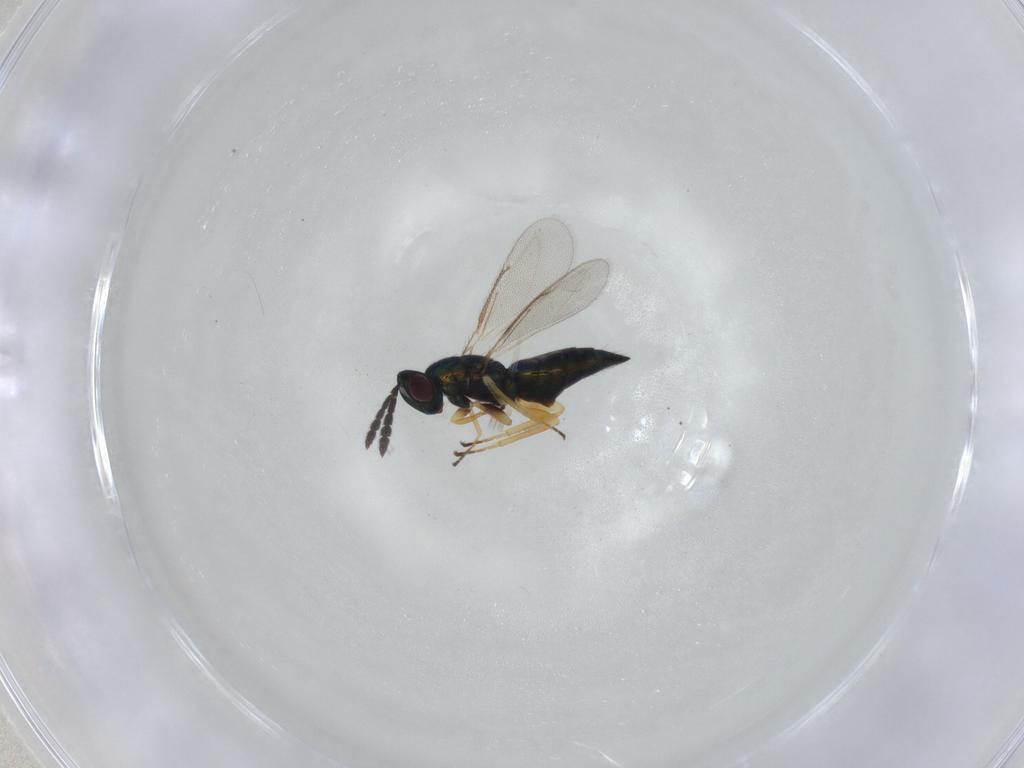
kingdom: Animalia
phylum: Arthropoda
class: Insecta
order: Hymenoptera
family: Eulophidae
